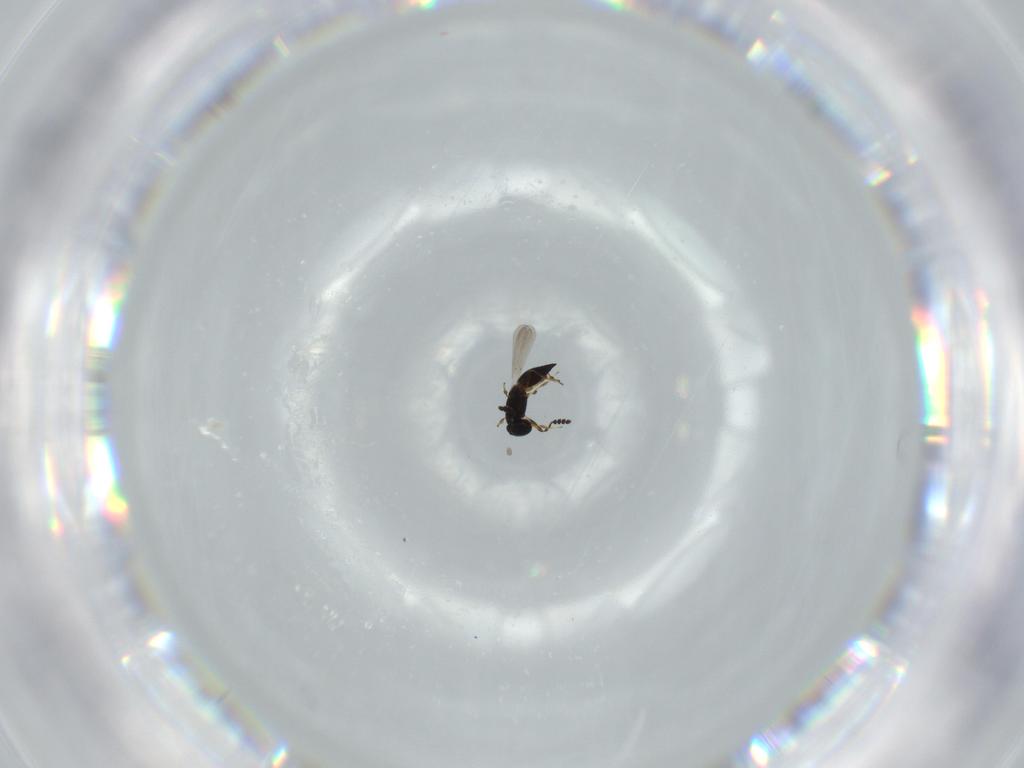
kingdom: Animalia
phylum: Arthropoda
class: Insecta
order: Hymenoptera
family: Platygastridae
